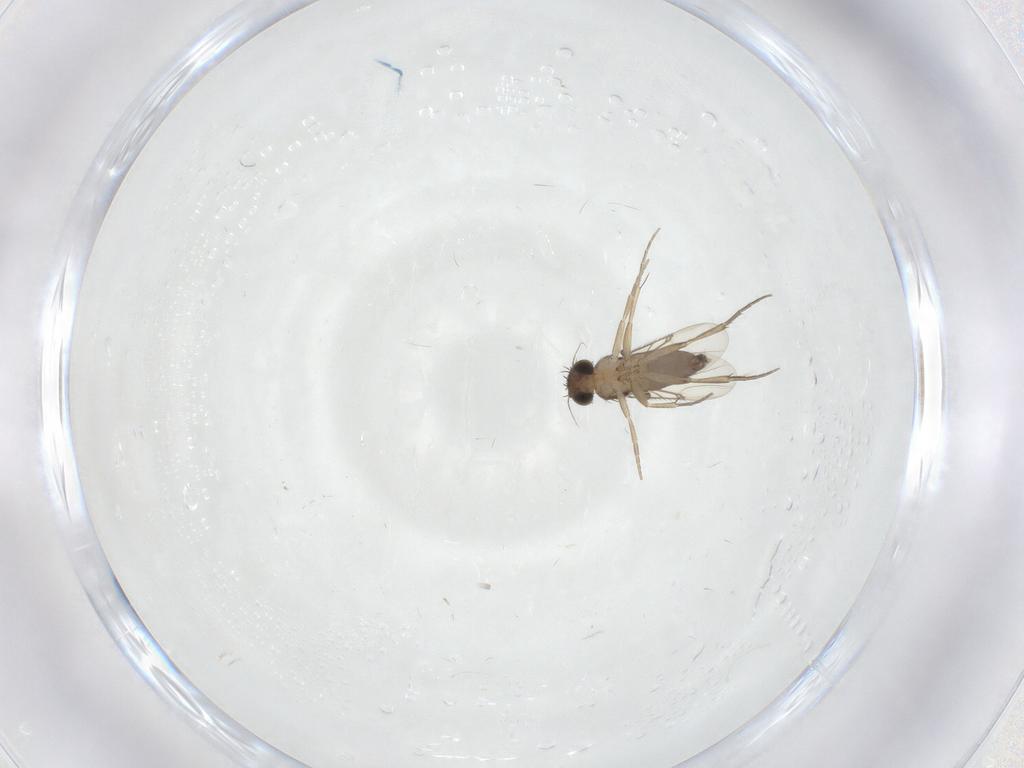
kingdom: Animalia
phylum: Arthropoda
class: Insecta
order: Diptera
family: Phoridae
